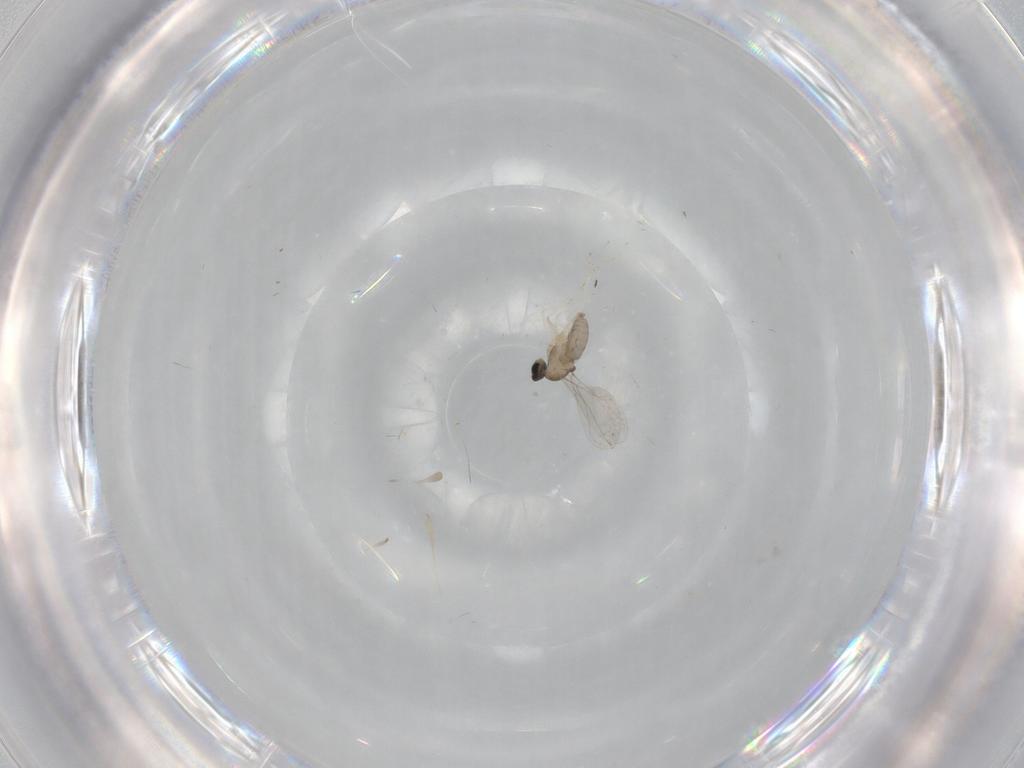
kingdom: Animalia
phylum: Arthropoda
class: Insecta
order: Diptera
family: Cecidomyiidae
